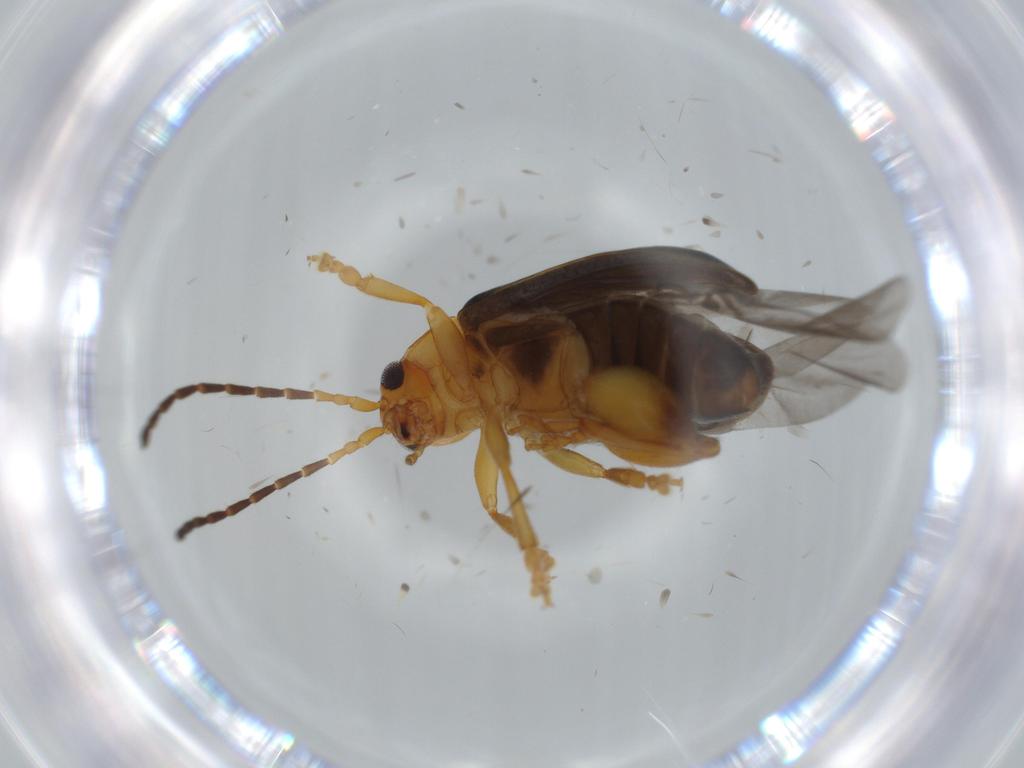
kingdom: Animalia
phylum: Arthropoda
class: Insecta
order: Coleoptera
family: Chrysomelidae
